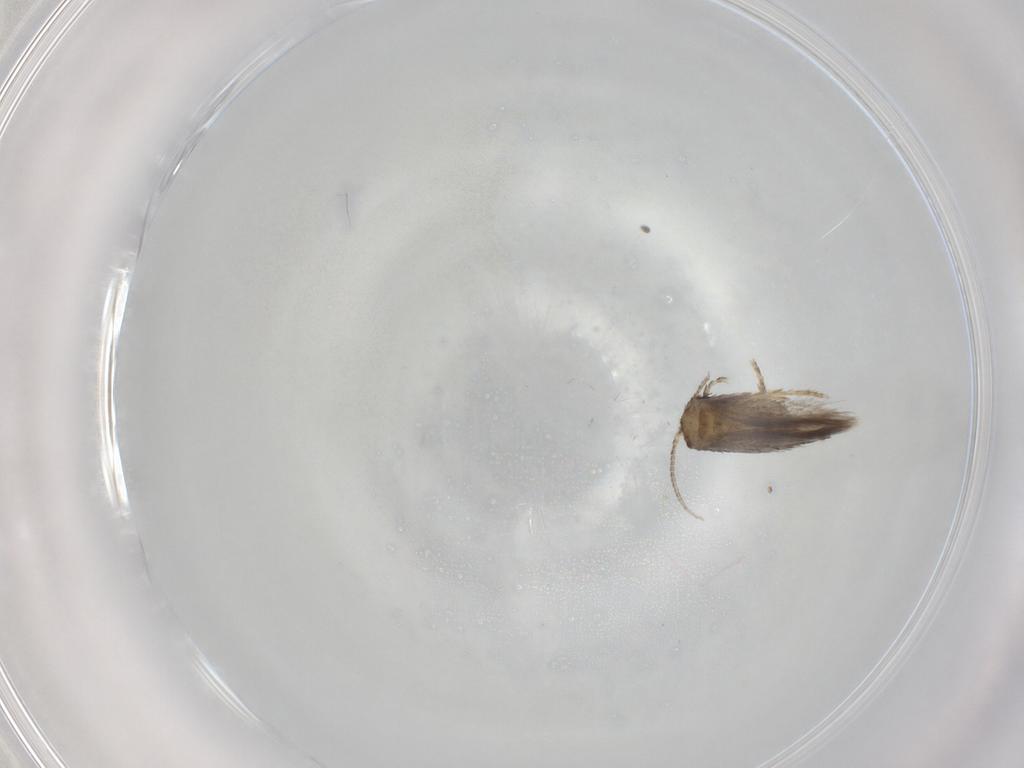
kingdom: Animalia
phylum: Arthropoda
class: Insecta
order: Lepidoptera
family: Nepticulidae
